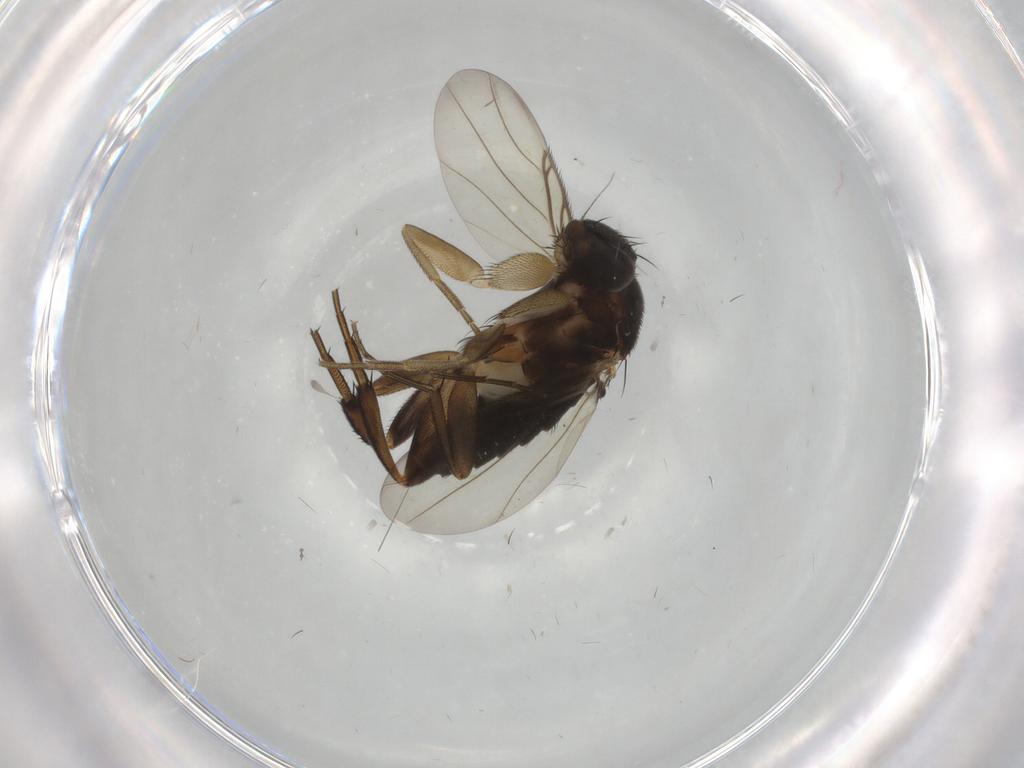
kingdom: Animalia
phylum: Arthropoda
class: Insecta
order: Diptera
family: Phoridae
